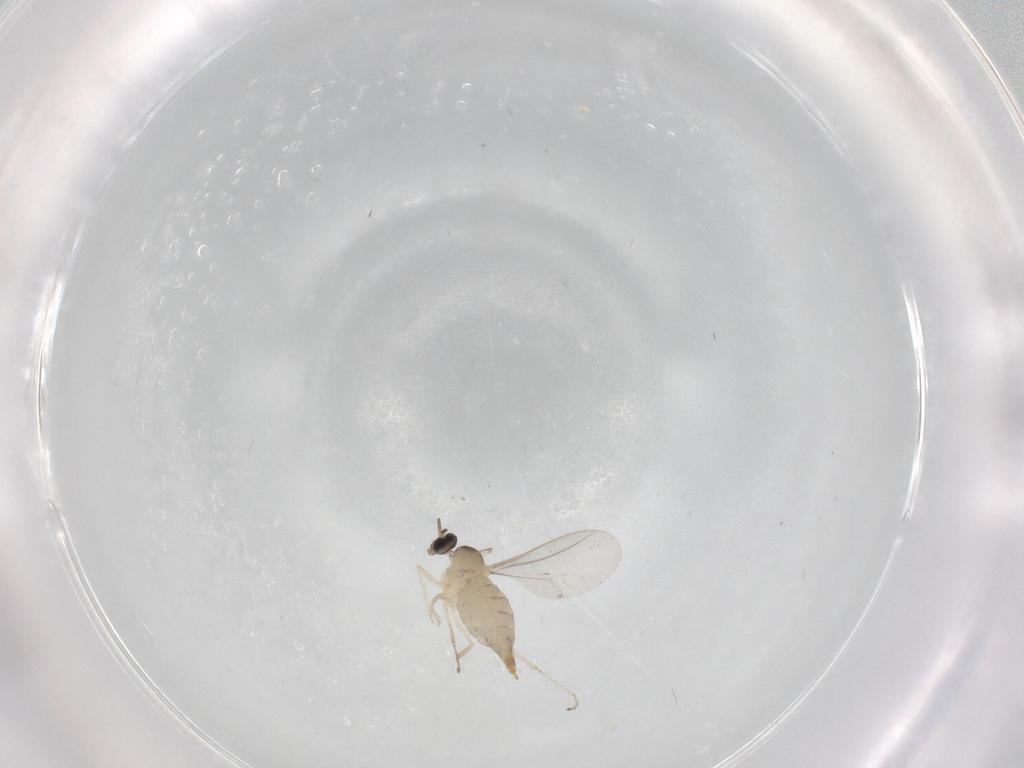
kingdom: Animalia
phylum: Arthropoda
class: Insecta
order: Diptera
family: Cecidomyiidae
